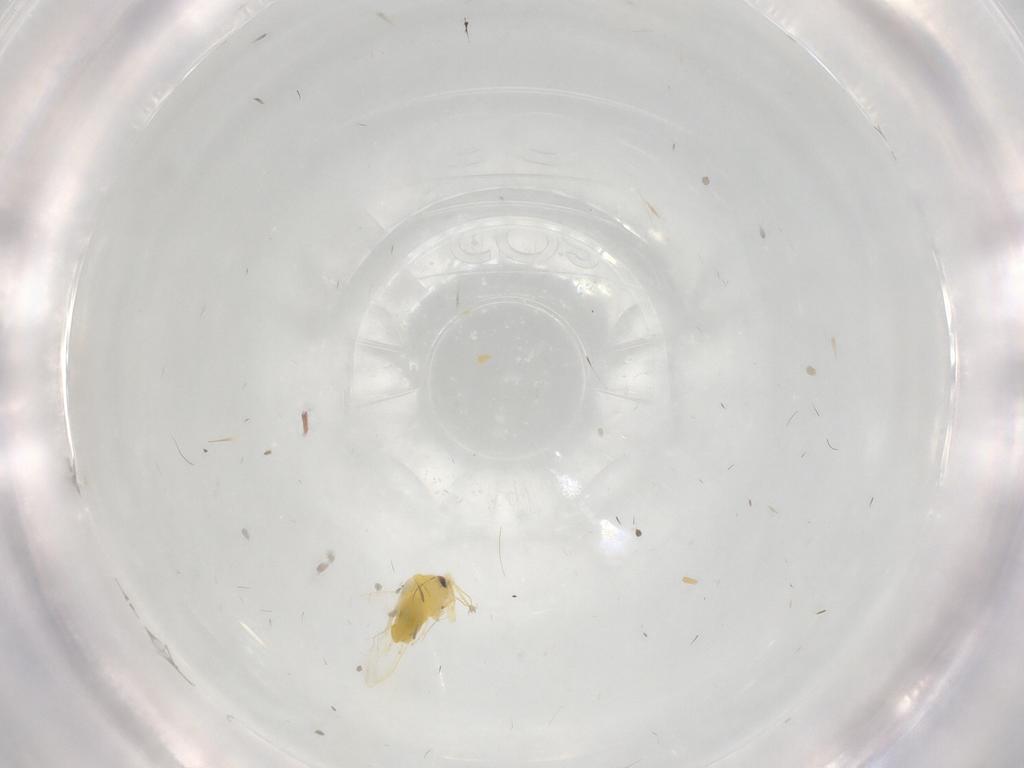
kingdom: Animalia
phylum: Arthropoda
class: Insecta
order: Hemiptera
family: Aleyrodidae
